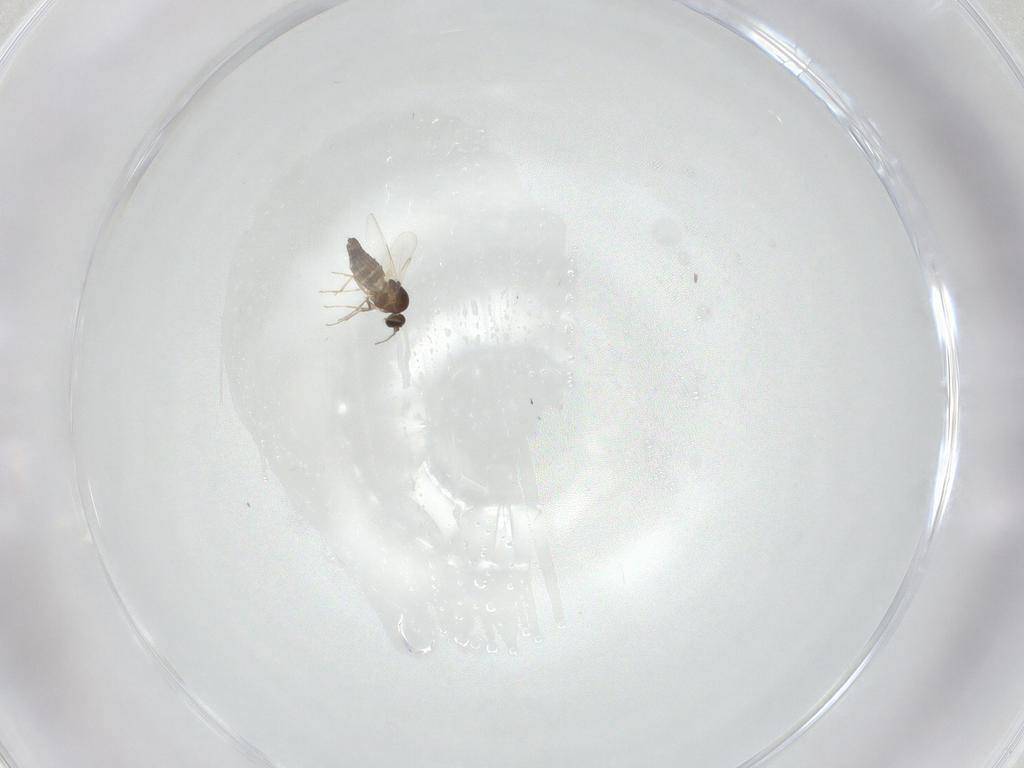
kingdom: Animalia
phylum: Arthropoda
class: Insecta
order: Diptera
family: Ceratopogonidae
